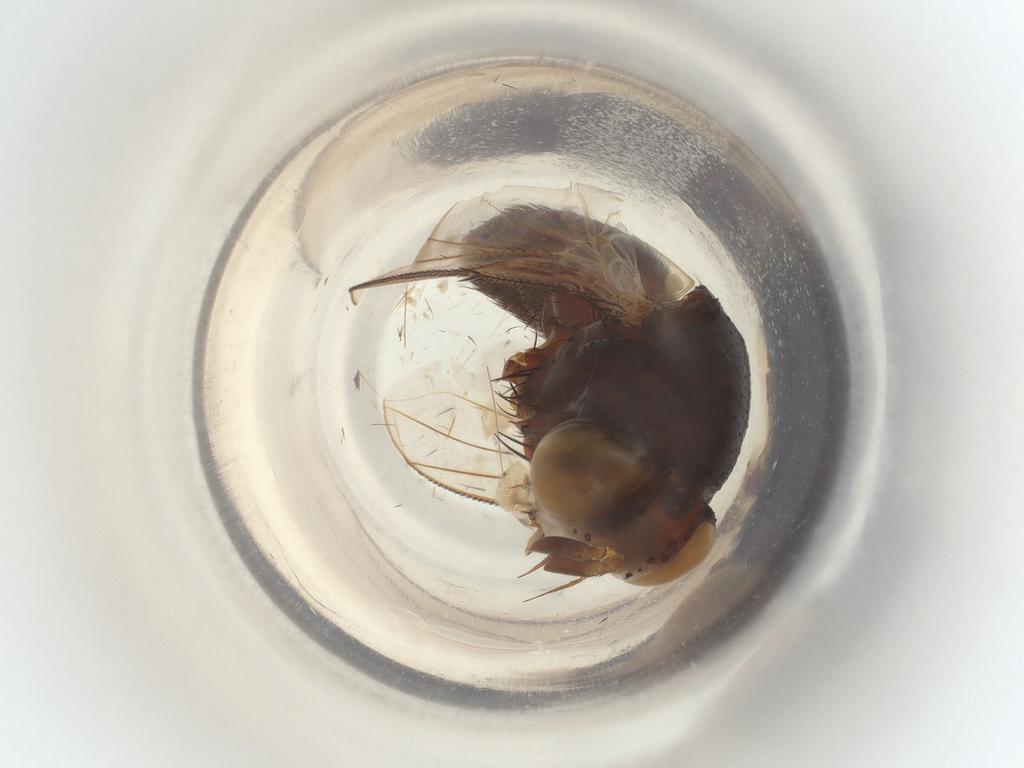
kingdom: Animalia
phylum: Arthropoda
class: Insecta
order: Diptera
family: Tachinidae
